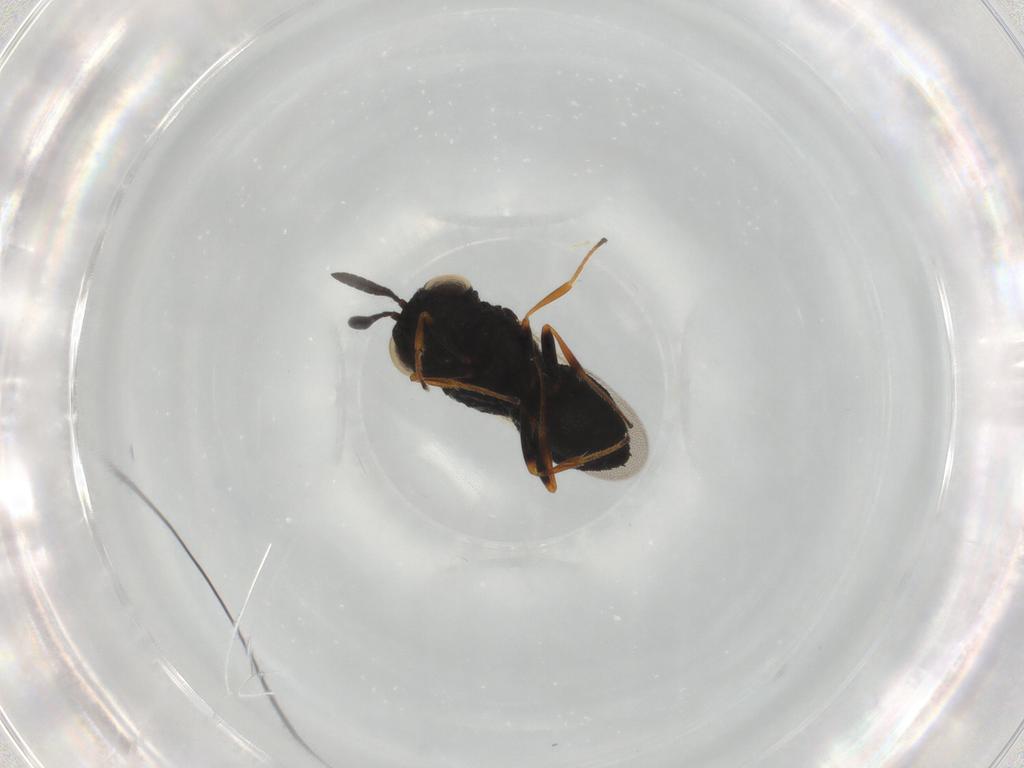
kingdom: Animalia
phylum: Arthropoda
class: Insecta
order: Hymenoptera
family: Scelionidae
